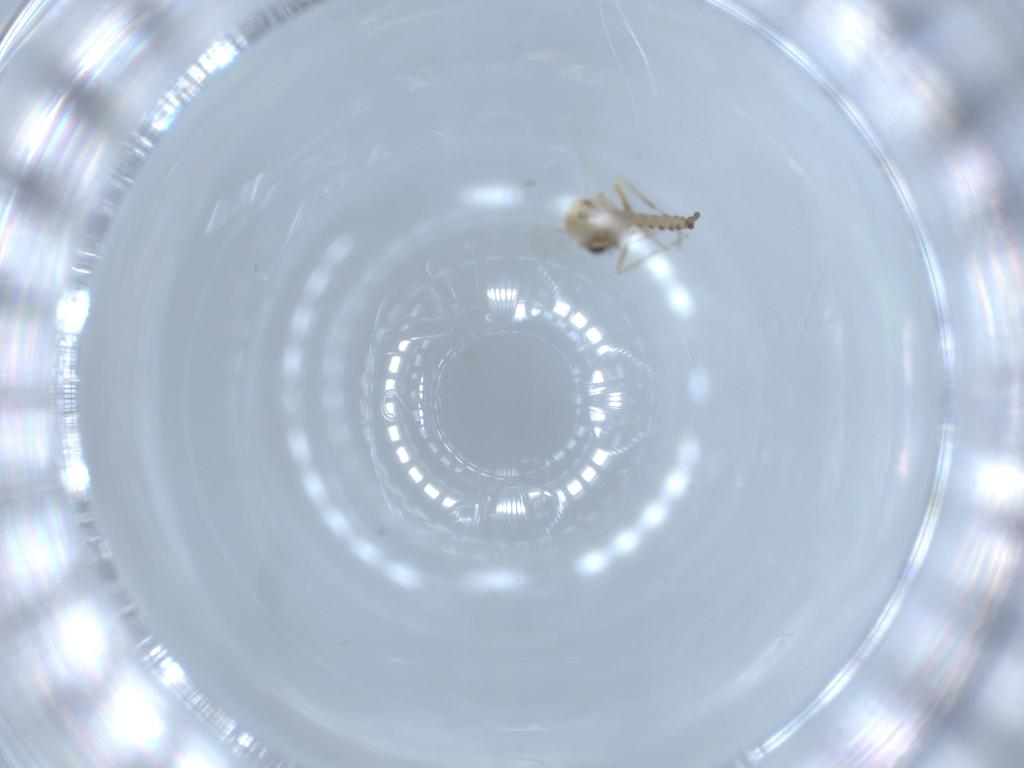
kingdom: Animalia
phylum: Arthropoda
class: Insecta
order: Diptera
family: Ceratopogonidae
